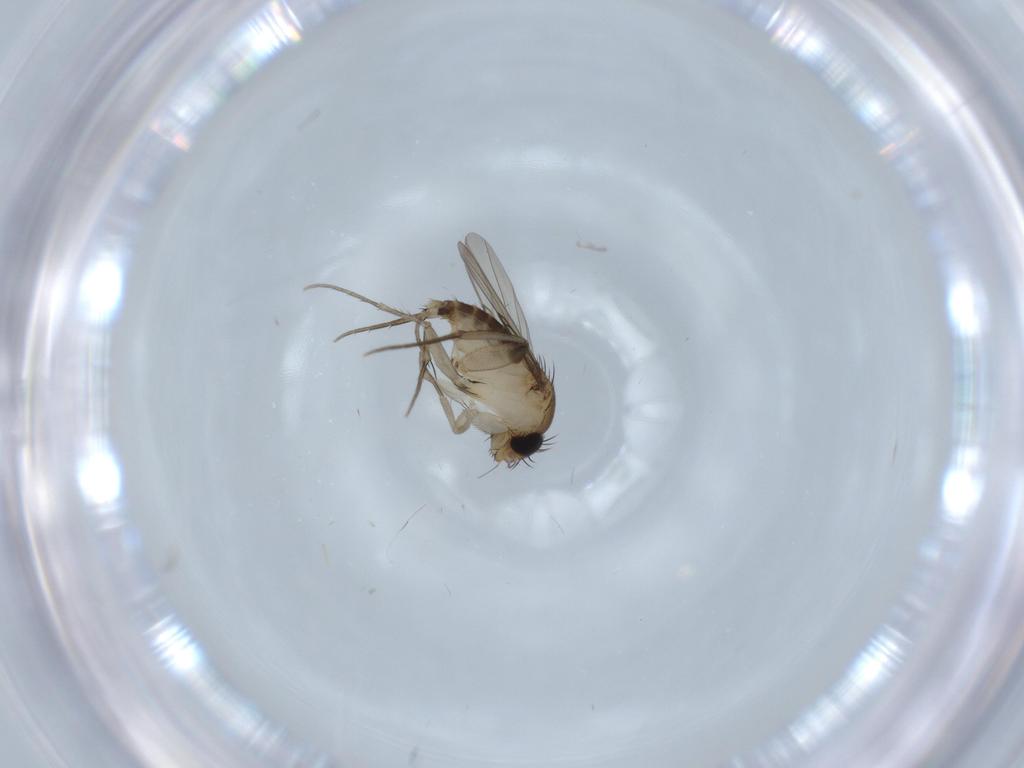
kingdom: Animalia
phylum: Arthropoda
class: Insecta
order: Diptera
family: Phoridae
